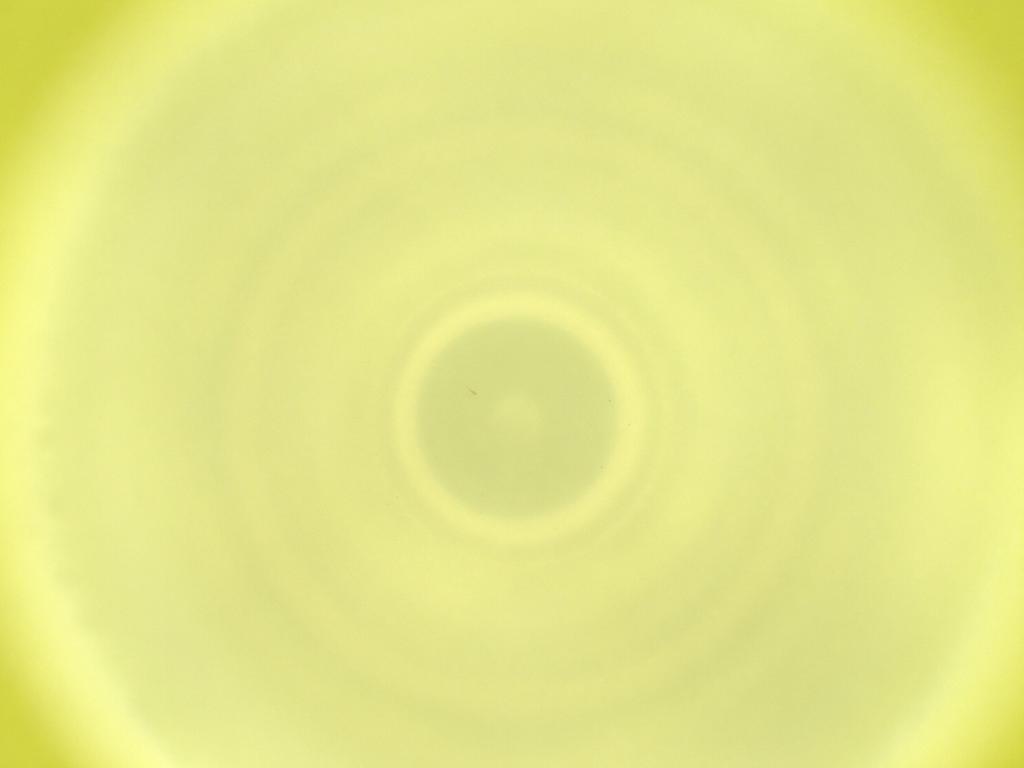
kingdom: Animalia
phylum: Arthropoda
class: Insecta
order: Diptera
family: Cecidomyiidae
